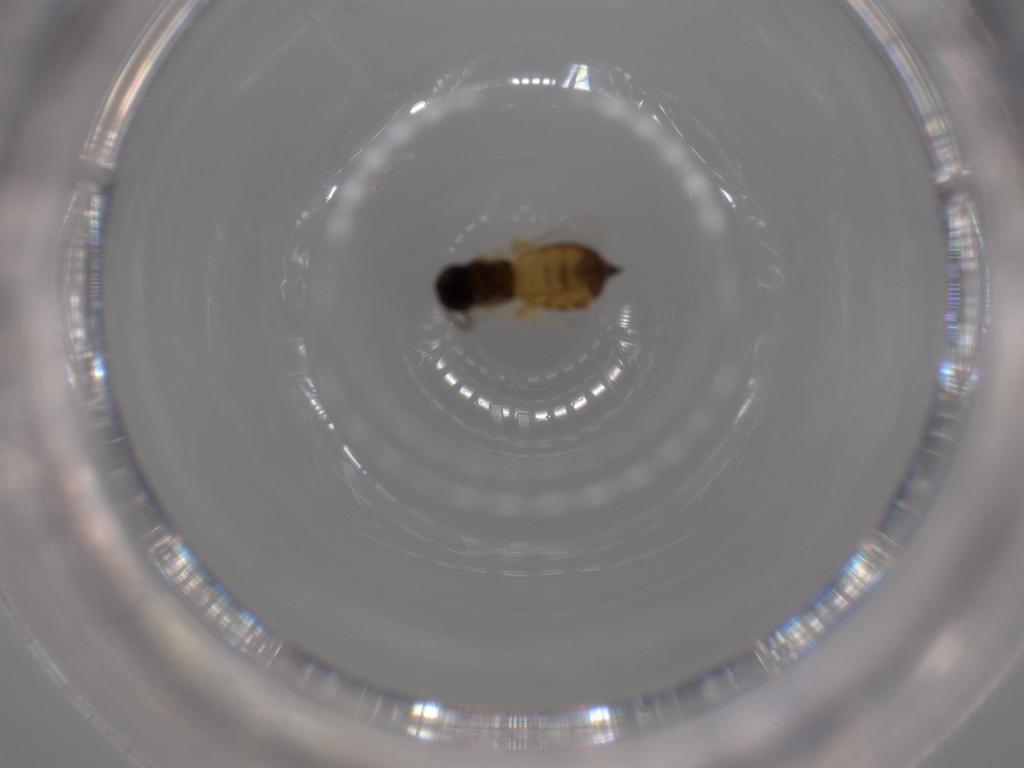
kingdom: Animalia
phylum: Arthropoda
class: Insecta
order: Hymenoptera
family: Eulophidae
